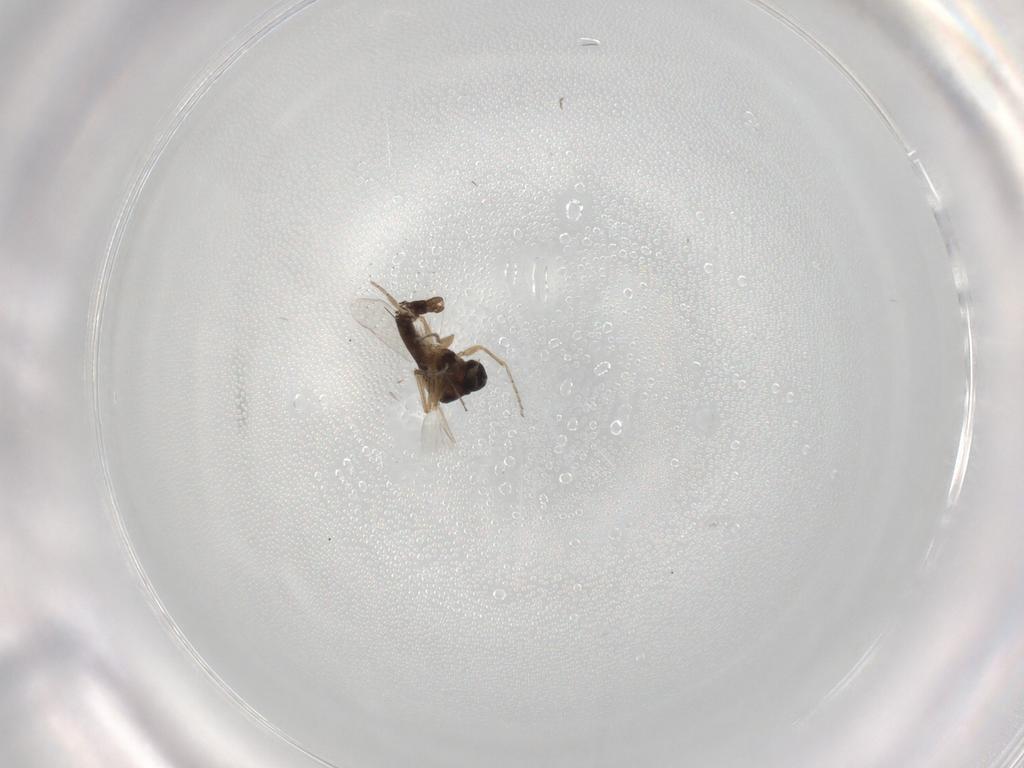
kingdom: Animalia
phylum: Arthropoda
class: Insecta
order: Diptera
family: Ceratopogonidae
